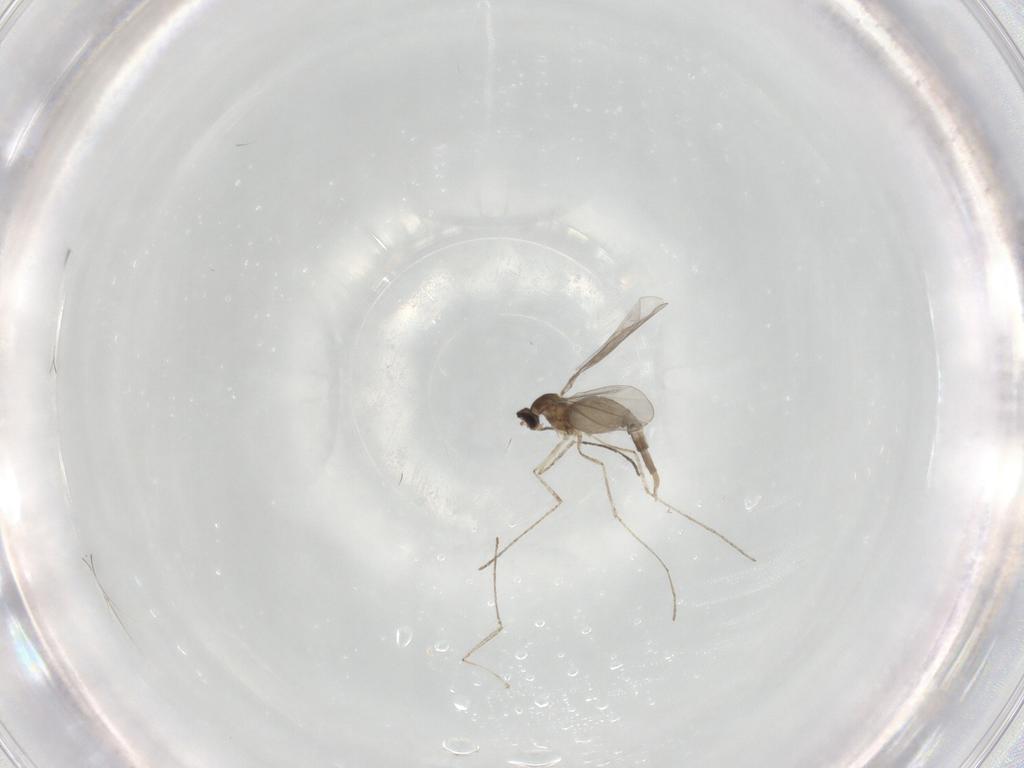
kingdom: Animalia
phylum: Arthropoda
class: Insecta
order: Diptera
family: Cecidomyiidae
